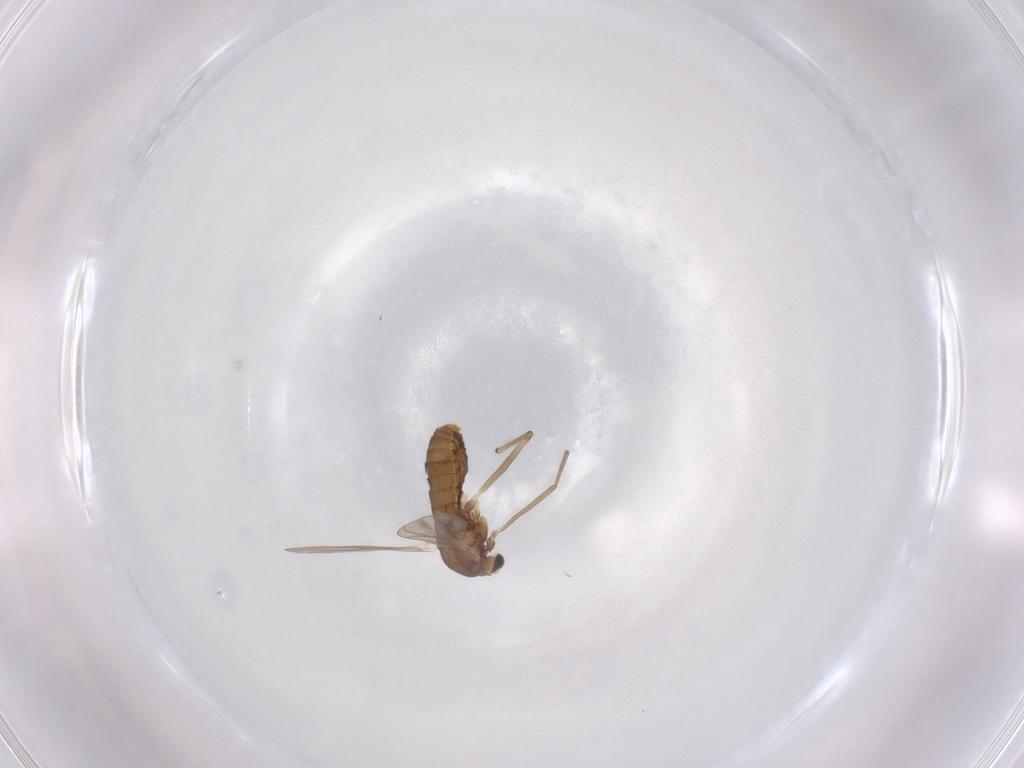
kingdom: Animalia
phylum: Arthropoda
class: Insecta
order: Diptera
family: Chironomidae
